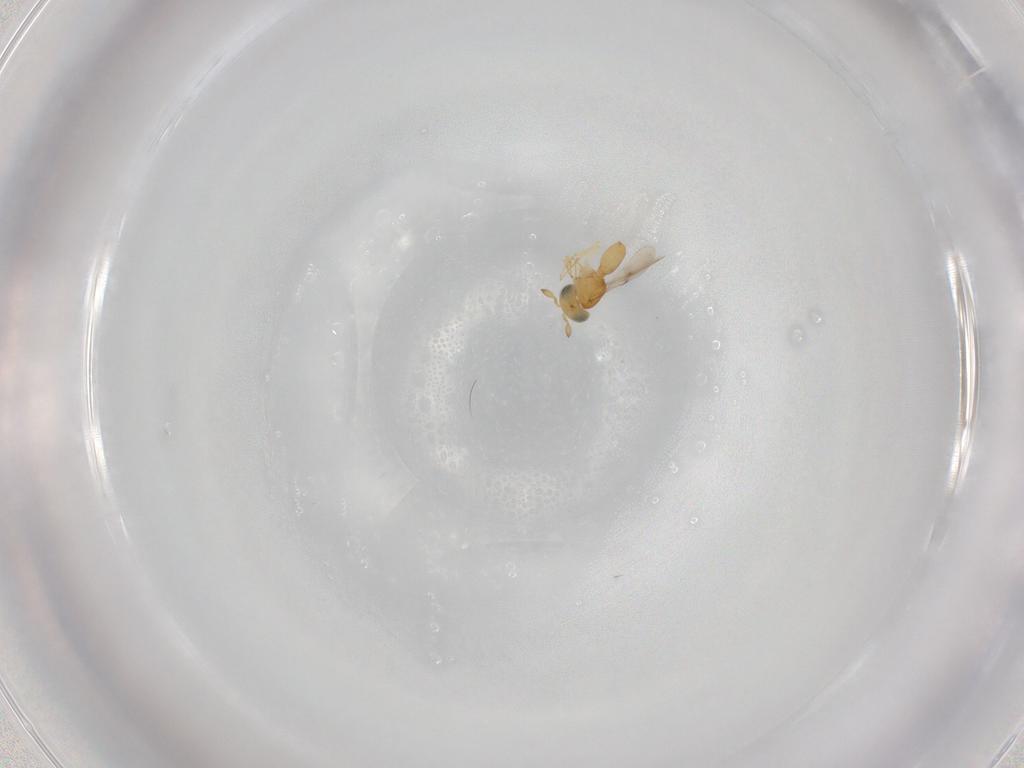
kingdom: Animalia
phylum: Arthropoda
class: Insecta
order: Hymenoptera
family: Scelionidae
